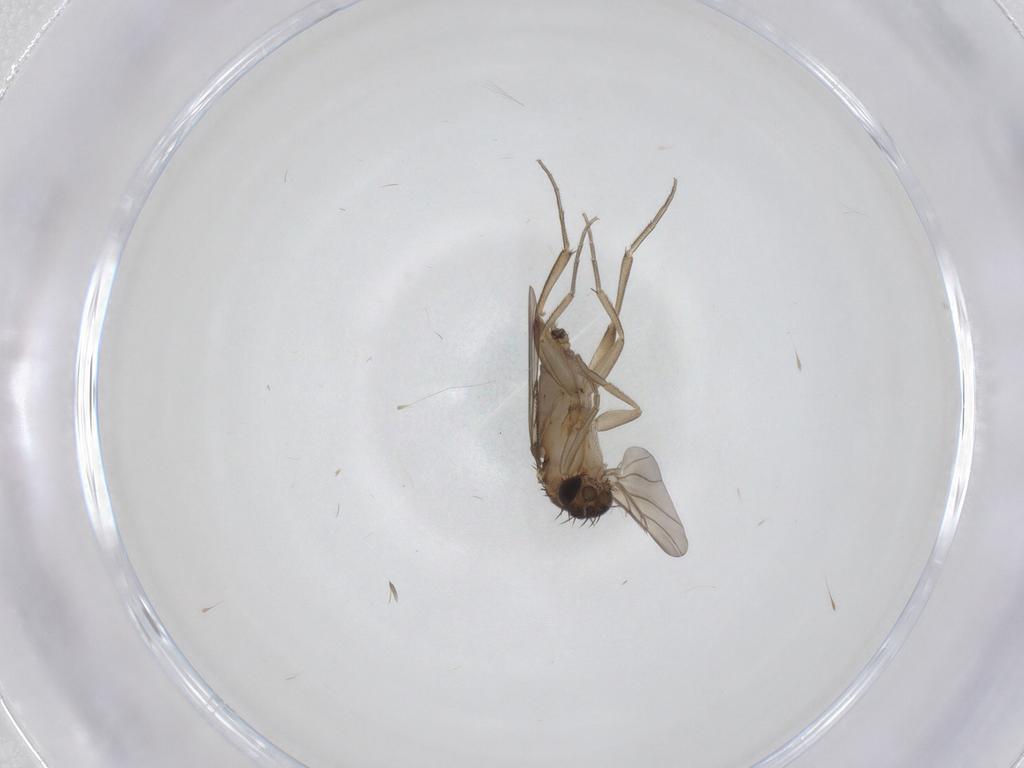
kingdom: Animalia
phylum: Arthropoda
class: Insecta
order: Diptera
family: Phoridae
